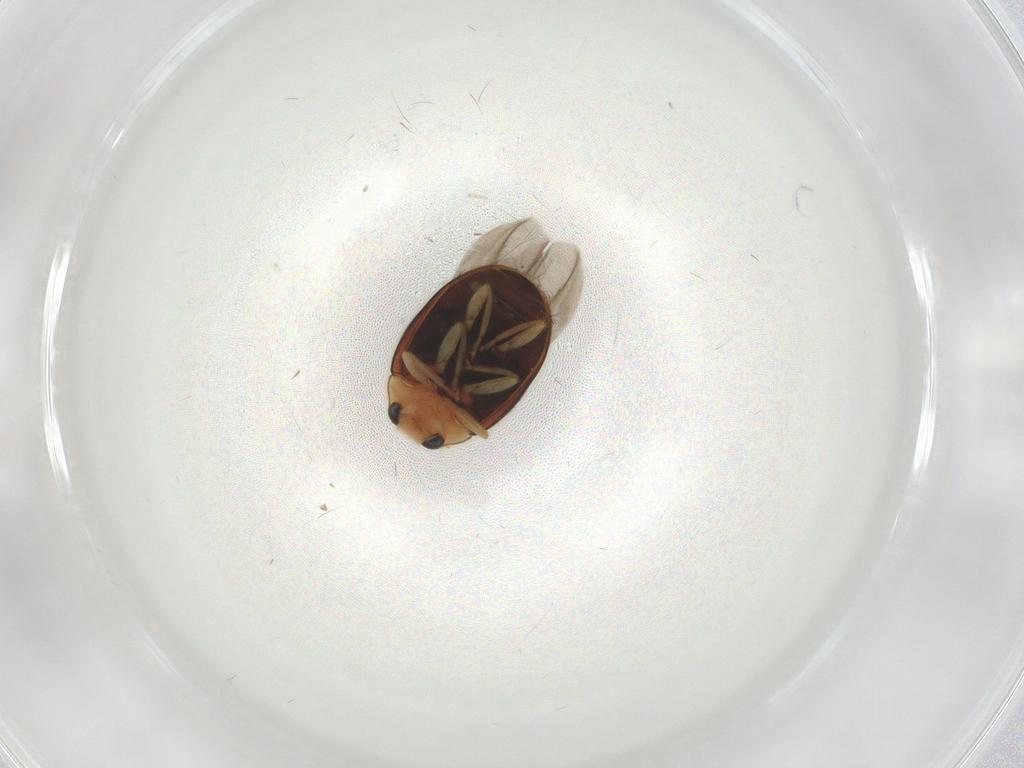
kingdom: Animalia
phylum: Arthropoda
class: Insecta
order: Coleoptera
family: Coccinellidae
